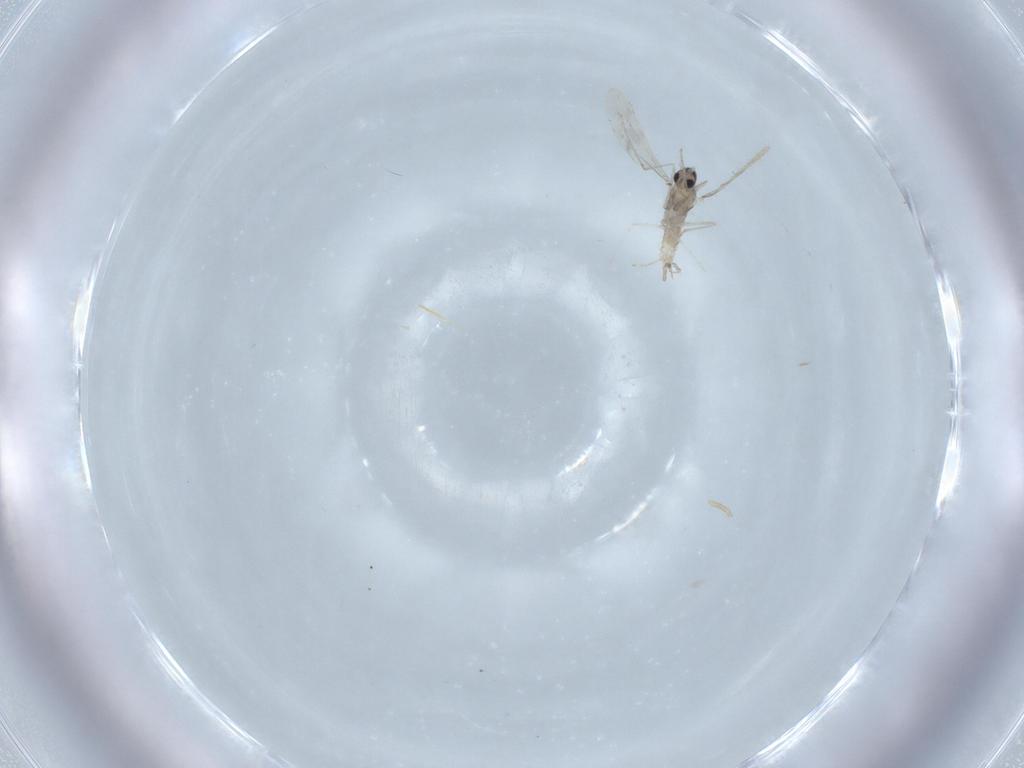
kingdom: Animalia
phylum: Arthropoda
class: Insecta
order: Diptera
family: Cecidomyiidae
